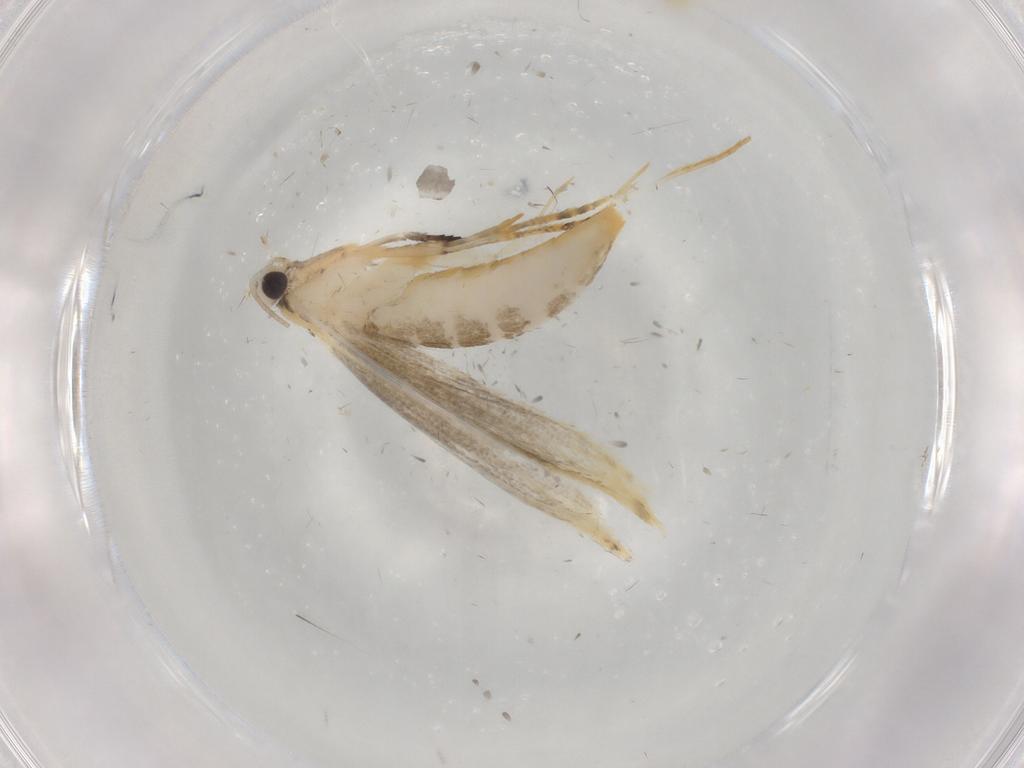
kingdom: Animalia
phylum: Arthropoda
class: Insecta
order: Lepidoptera
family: Tineidae
